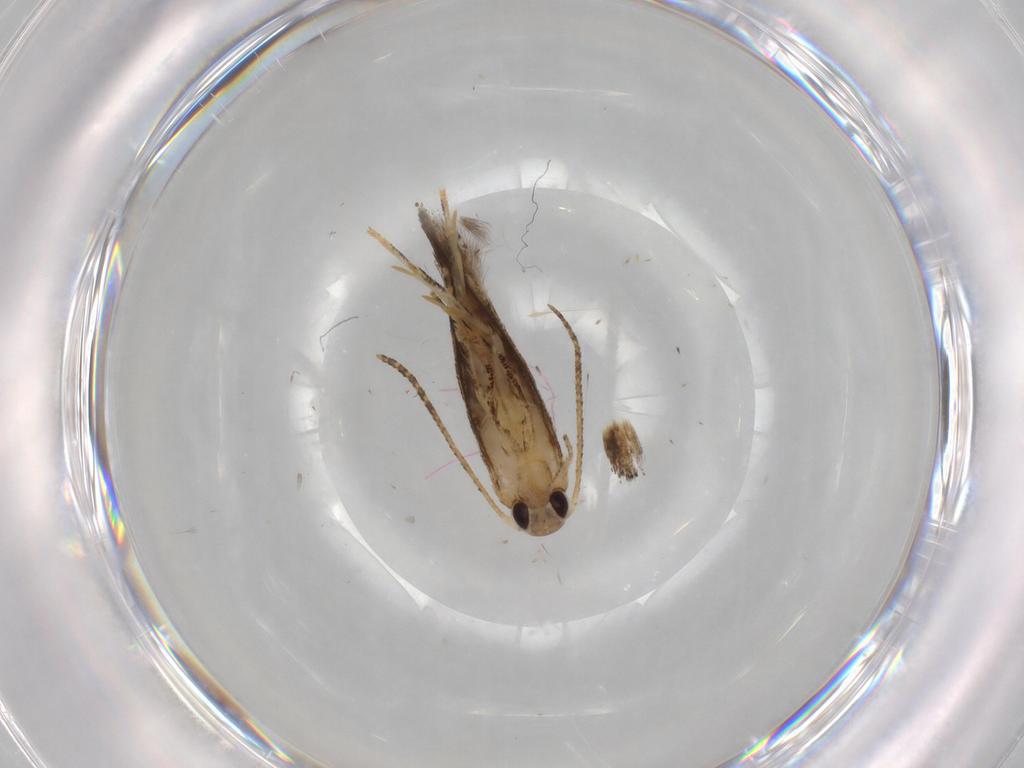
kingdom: Animalia
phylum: Arthropoda
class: Insecta
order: Lepidoptera
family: Momphidae
